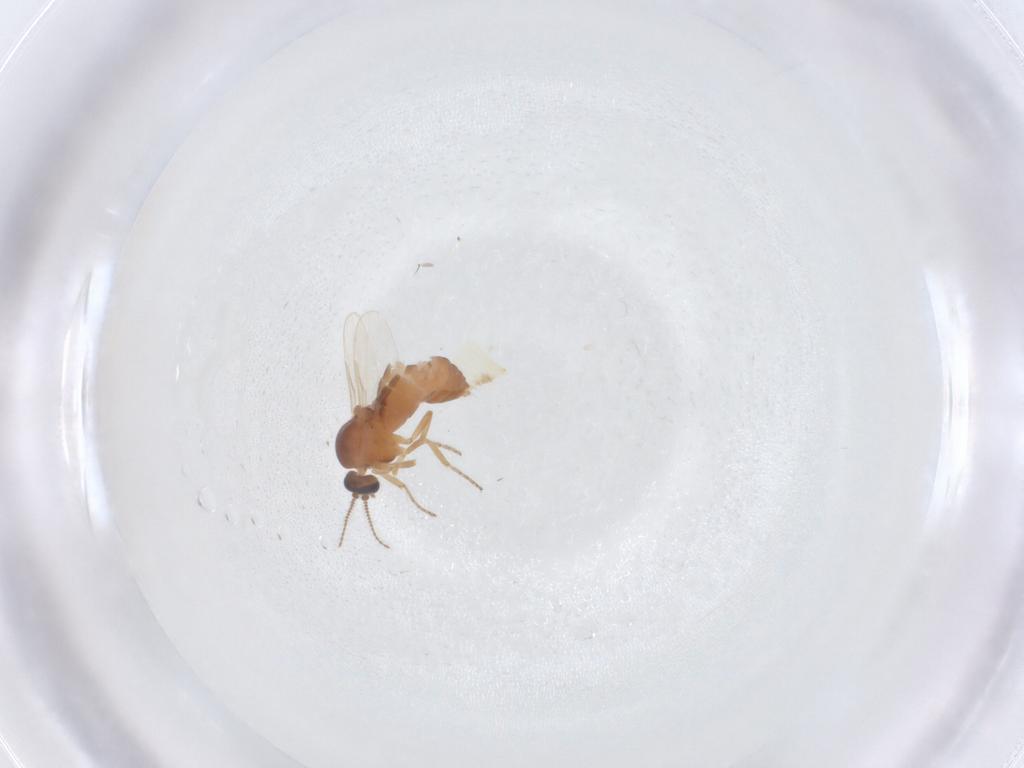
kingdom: Animalia
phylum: Arthropoda
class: Insecta
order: Diptera
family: Ceratopogonidae
